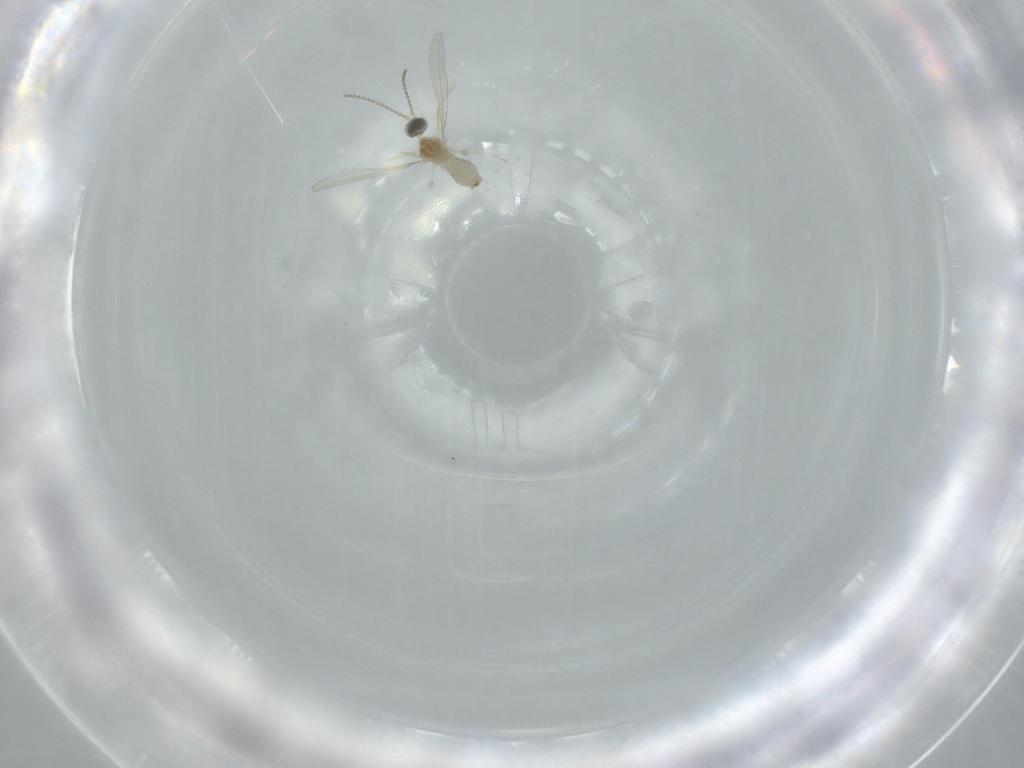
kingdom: Animalia
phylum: Arthropoda
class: Insecta
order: Diptera
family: Cecidomyiidae
